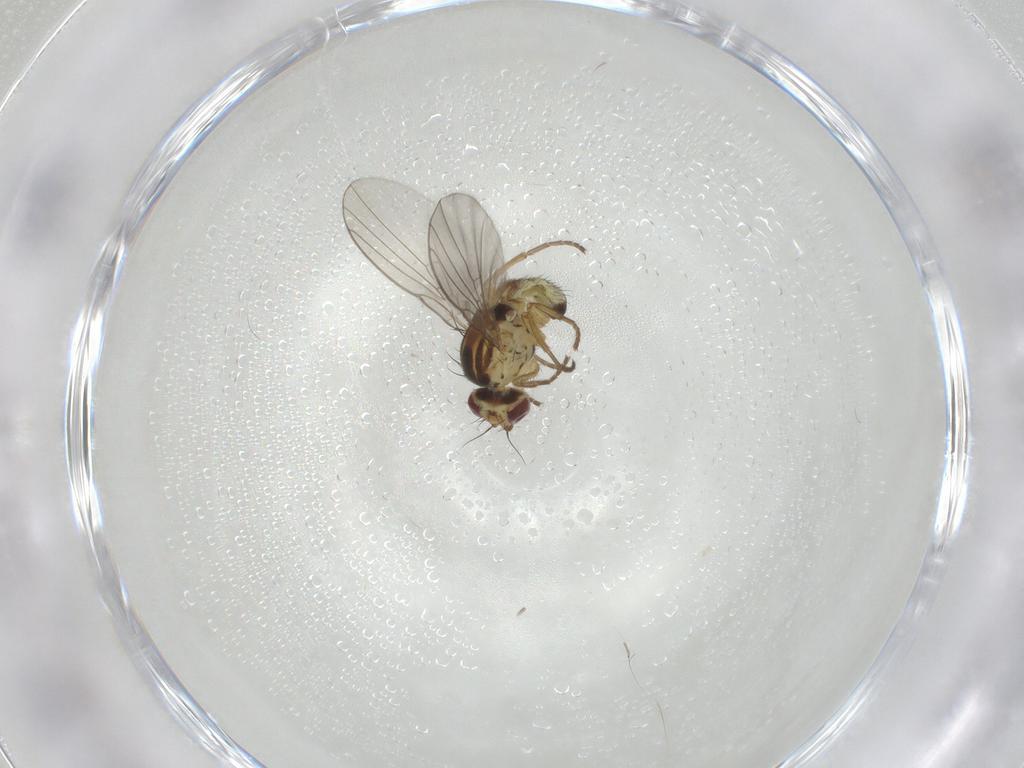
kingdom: Animalia
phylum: Arthropoda
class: Insecta
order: Diptera
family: Agromyzidae
